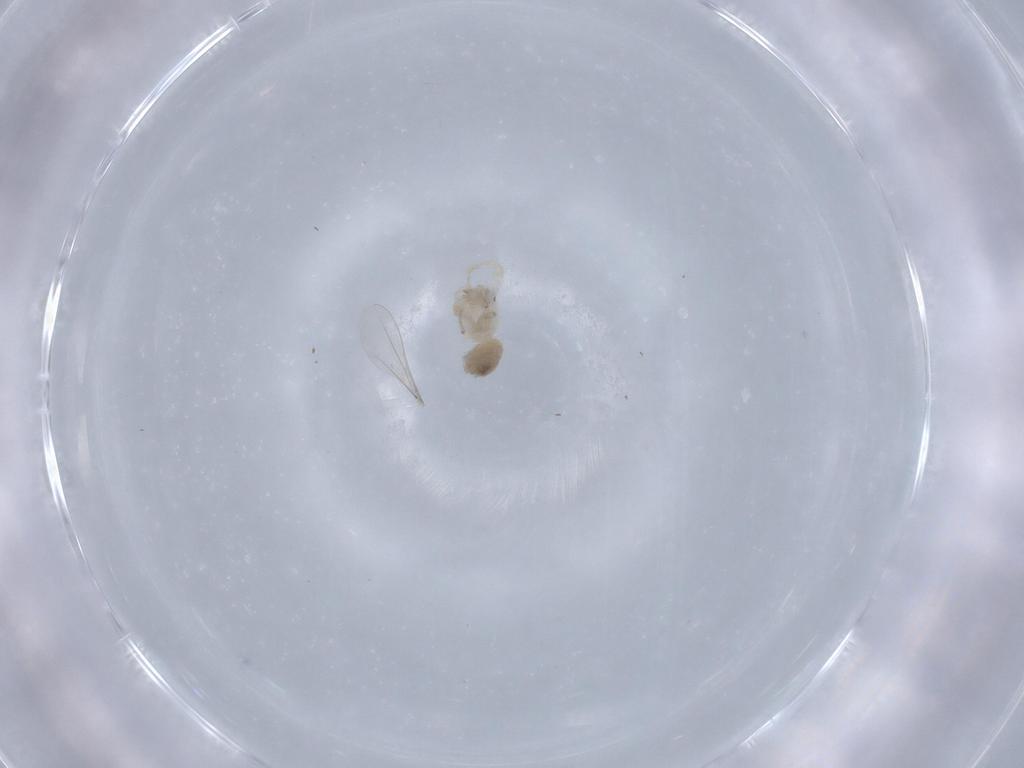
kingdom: Animalia
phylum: Arthropoda
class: Arachnida
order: Araneae
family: Oonopidae
